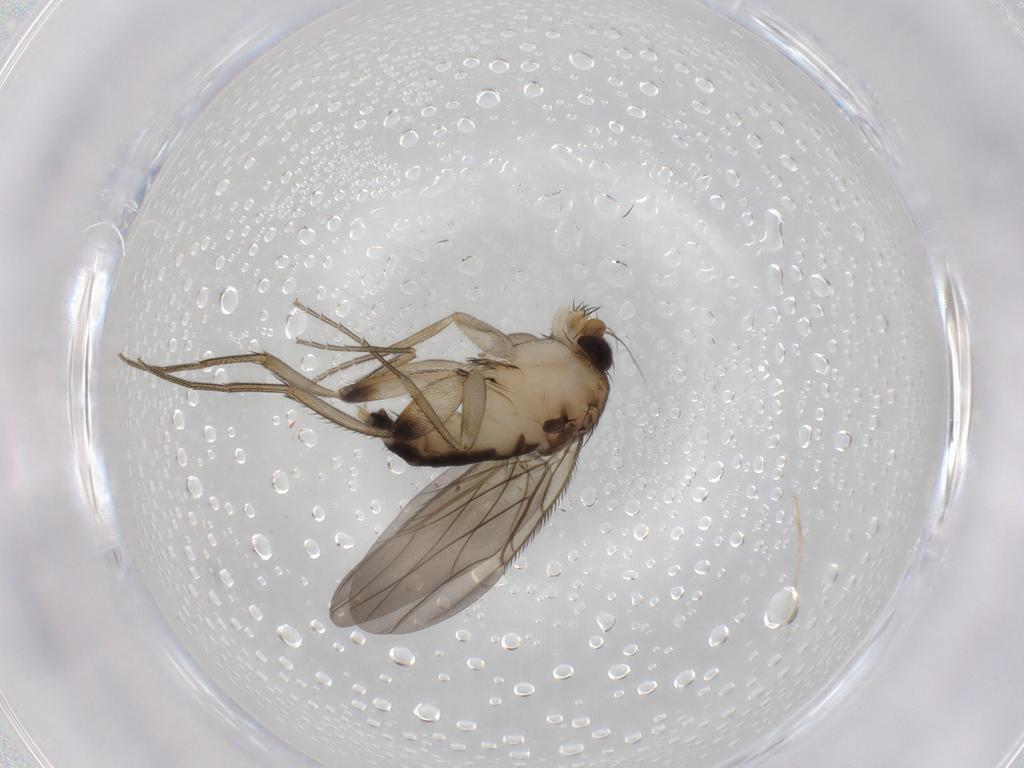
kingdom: Animalia
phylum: Arthropoda
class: Insecta
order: Diptera
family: Phoridae
